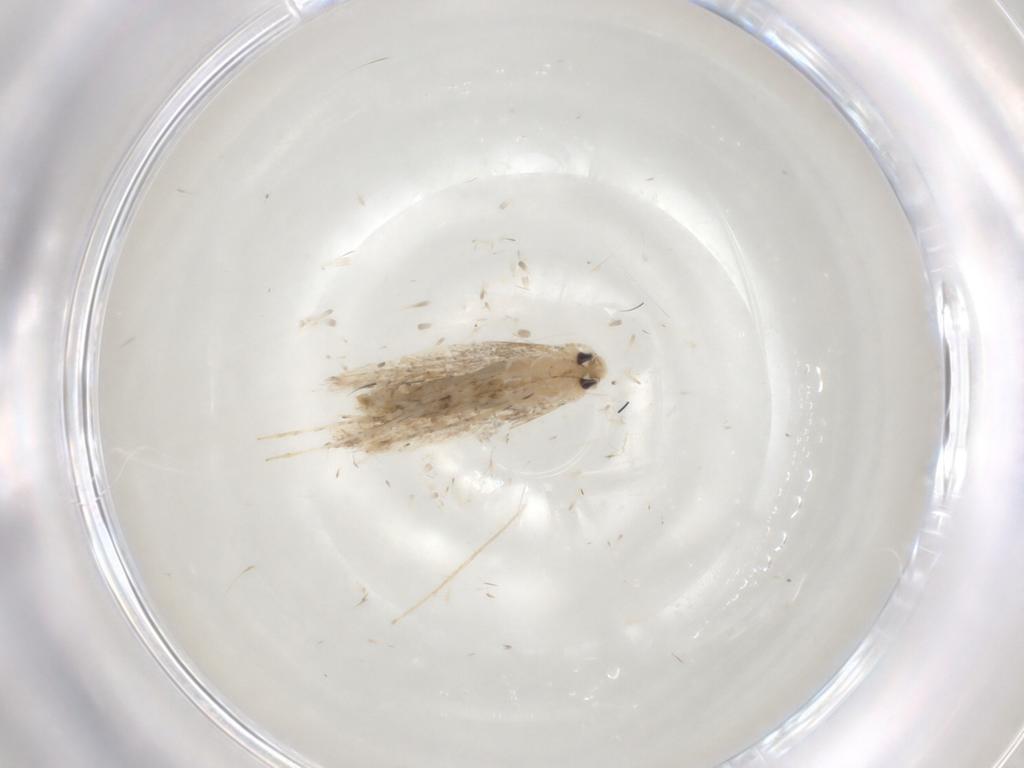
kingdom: Animalia
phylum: Arthropoda
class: Insecta
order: Lepidoptera
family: Gracillariidae
